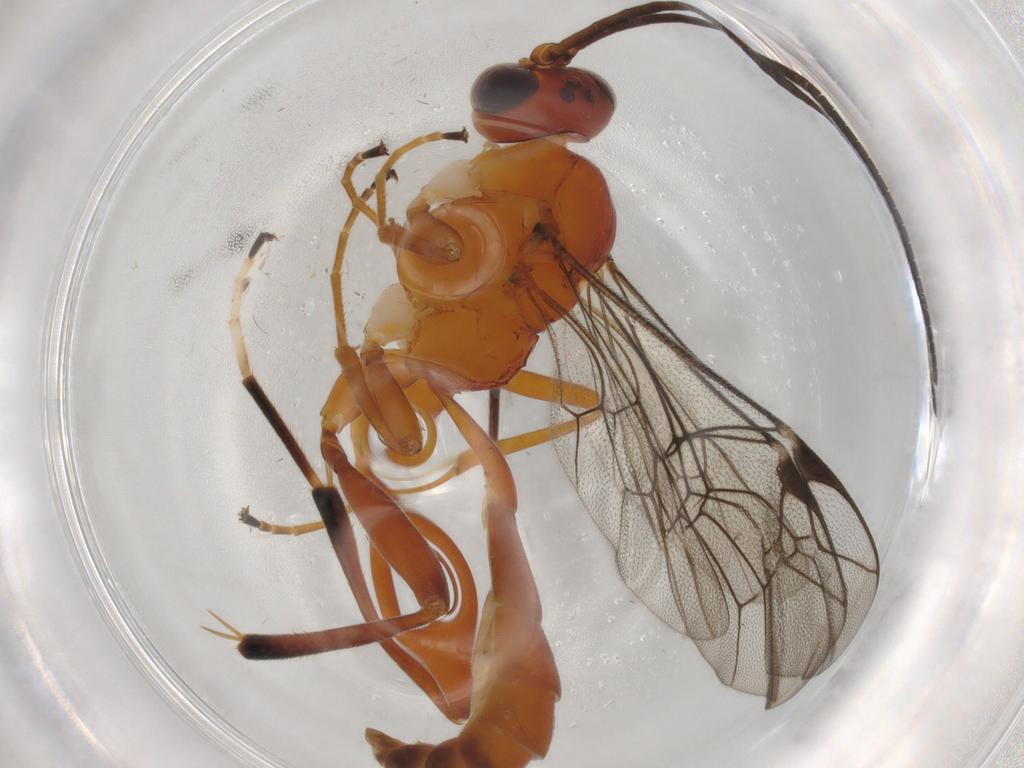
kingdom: Animalia
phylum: Arthropoda
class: Insecta
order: Hymenoptera
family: Ichneumonidae
